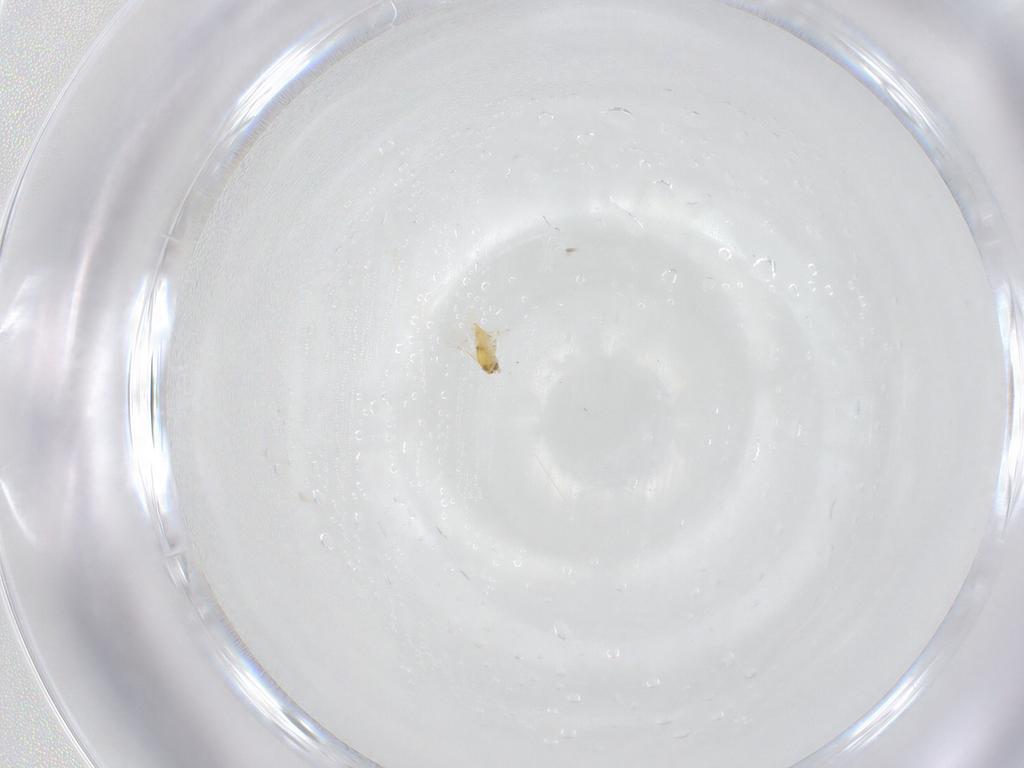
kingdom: Animalia
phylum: Arthropoda
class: Insecta
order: Hymenoptera
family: Aphelinidae
